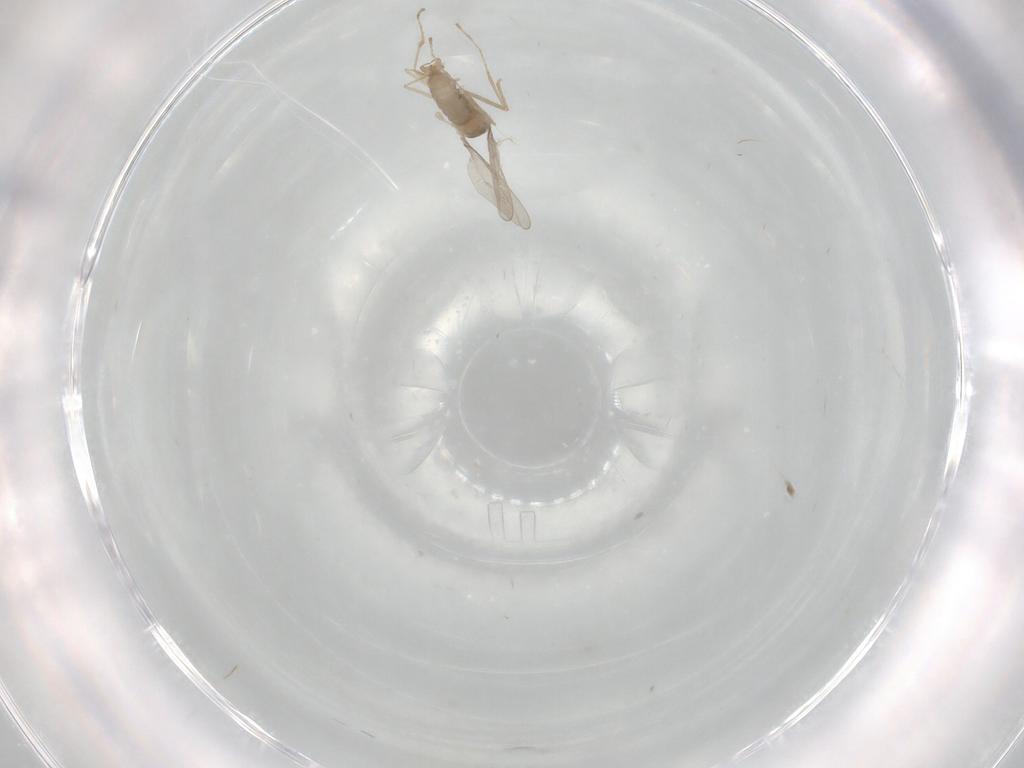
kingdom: Animalia
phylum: Arthropoda
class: Insecta
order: Diptera
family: Cecidomyiidae
